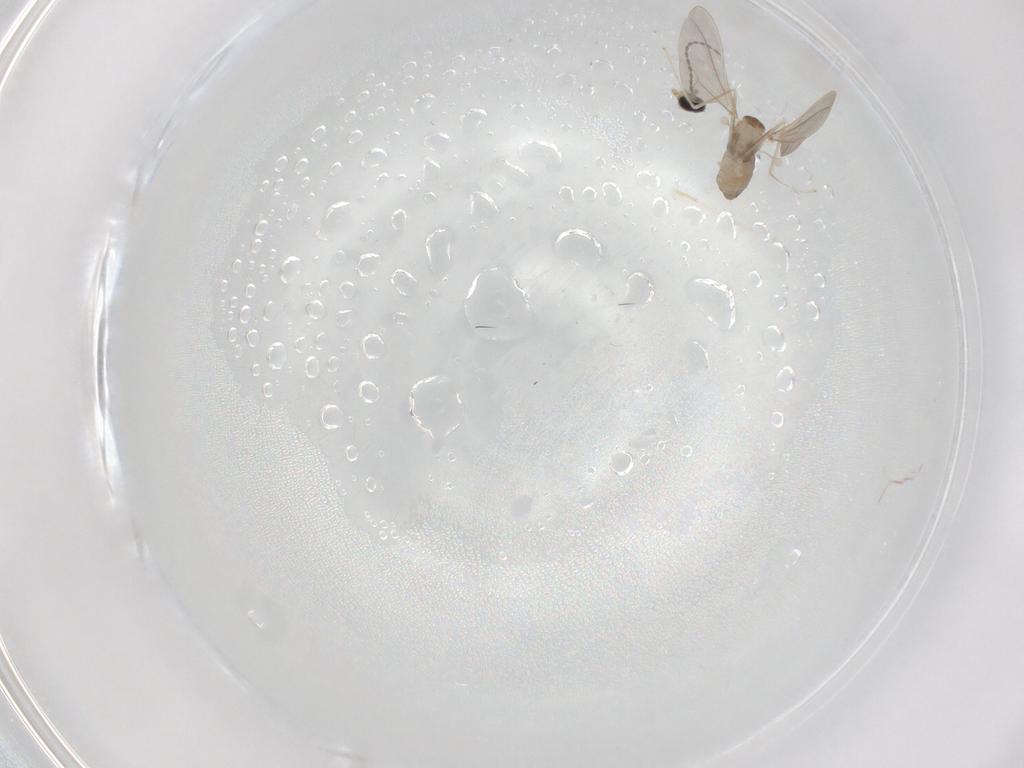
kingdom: Animalia
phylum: Arthropoda
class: Insecta
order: Diptera
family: Cecidomyiidae
